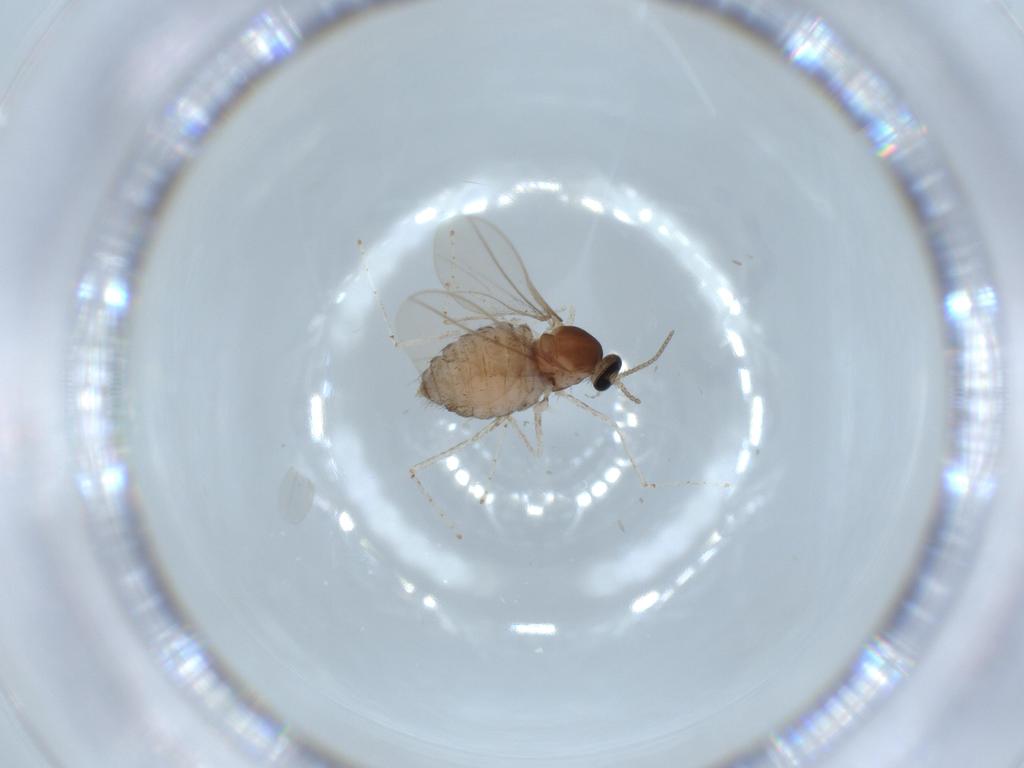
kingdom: Animalia
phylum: Arthropoda
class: Insecta
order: Diptera
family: Cecidomyiidae
